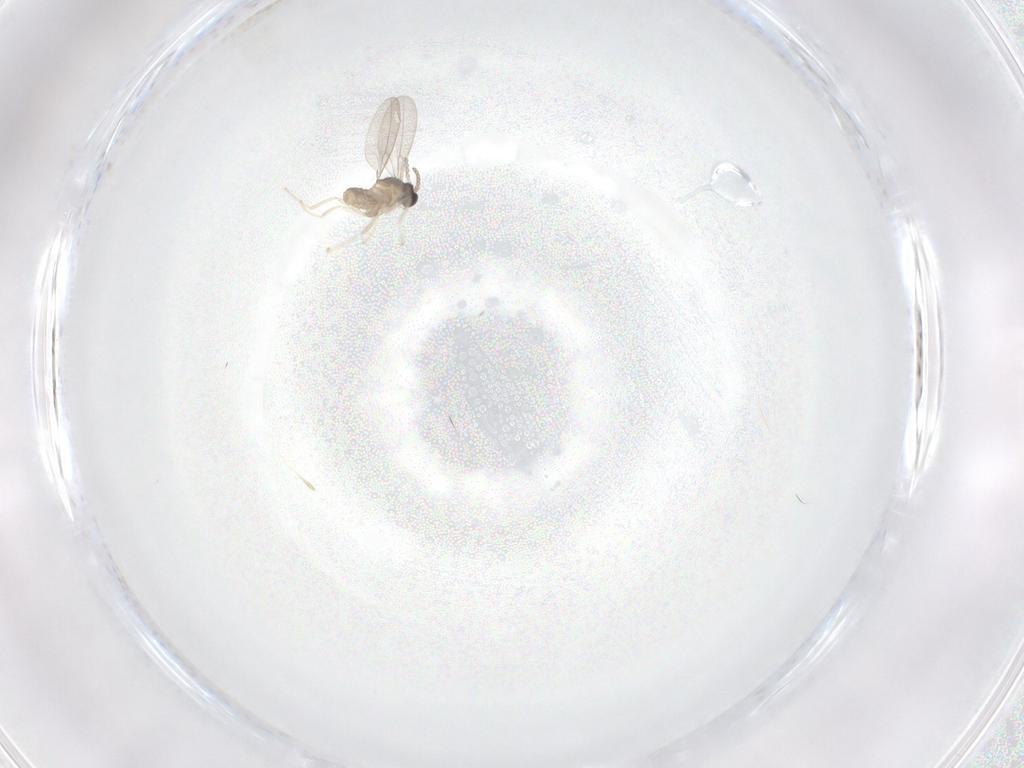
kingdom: Animalia
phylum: Arthropoda
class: Insecta
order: Diptera
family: Cecidomyiidae
